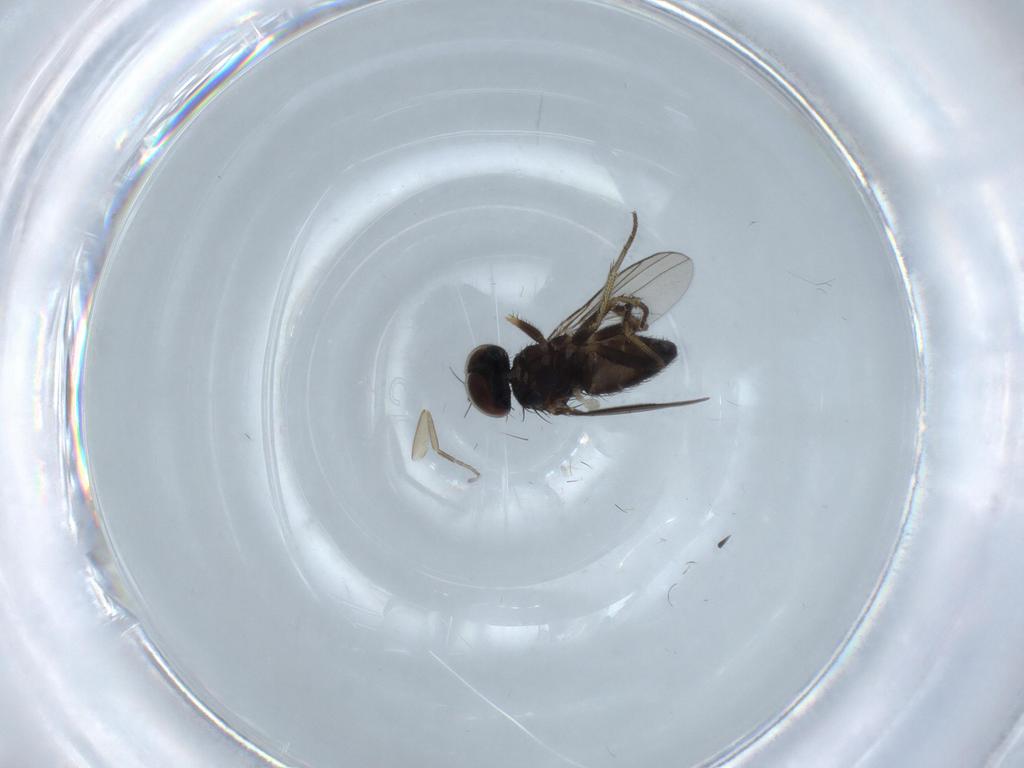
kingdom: Animalia
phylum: Arthropoda
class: Insecta
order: Diptera
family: Phoridae
